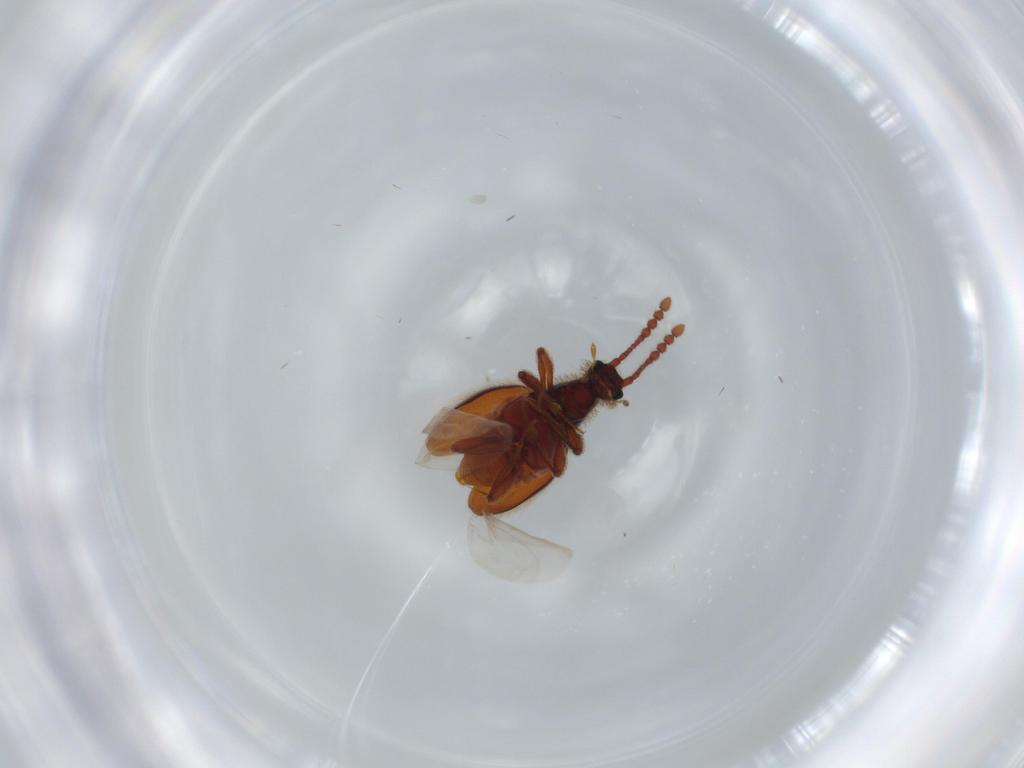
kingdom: Animalia
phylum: Arthropoda
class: Insecta
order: Coleoptera
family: Staphylinidae
